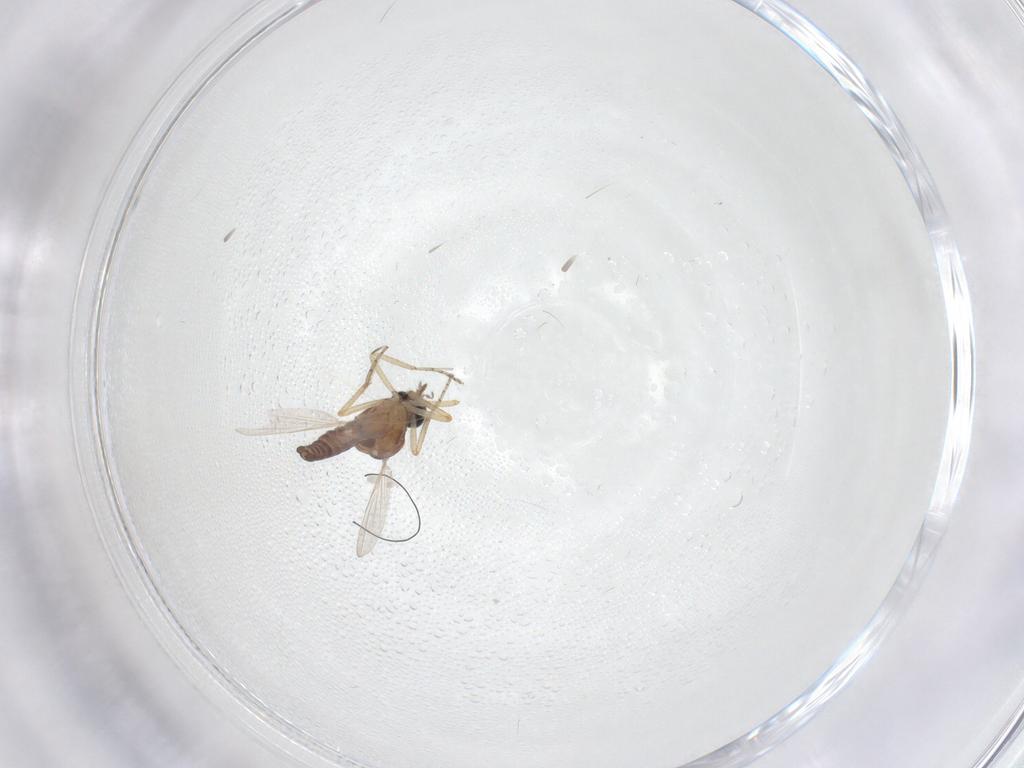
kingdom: Animalia
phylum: Arthropoda
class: Insecta
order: Diptera
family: Ceratopogonidae
